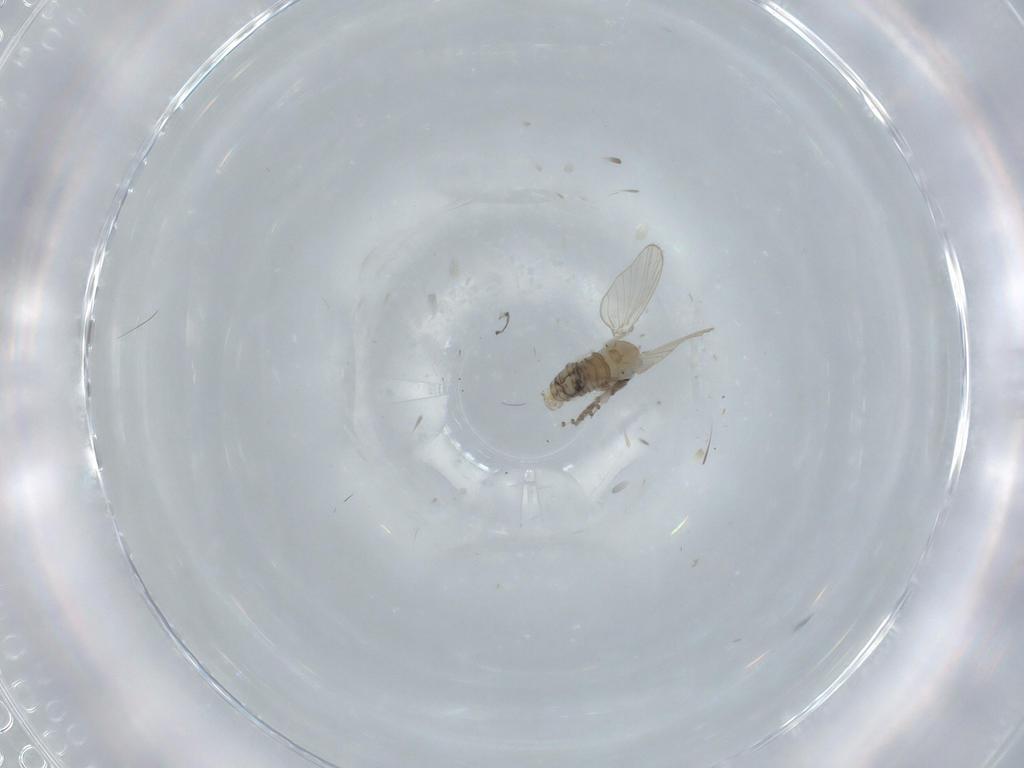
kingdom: Animalia
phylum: Arthropoda
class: Insecta
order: Diptera
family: Psychodidae
